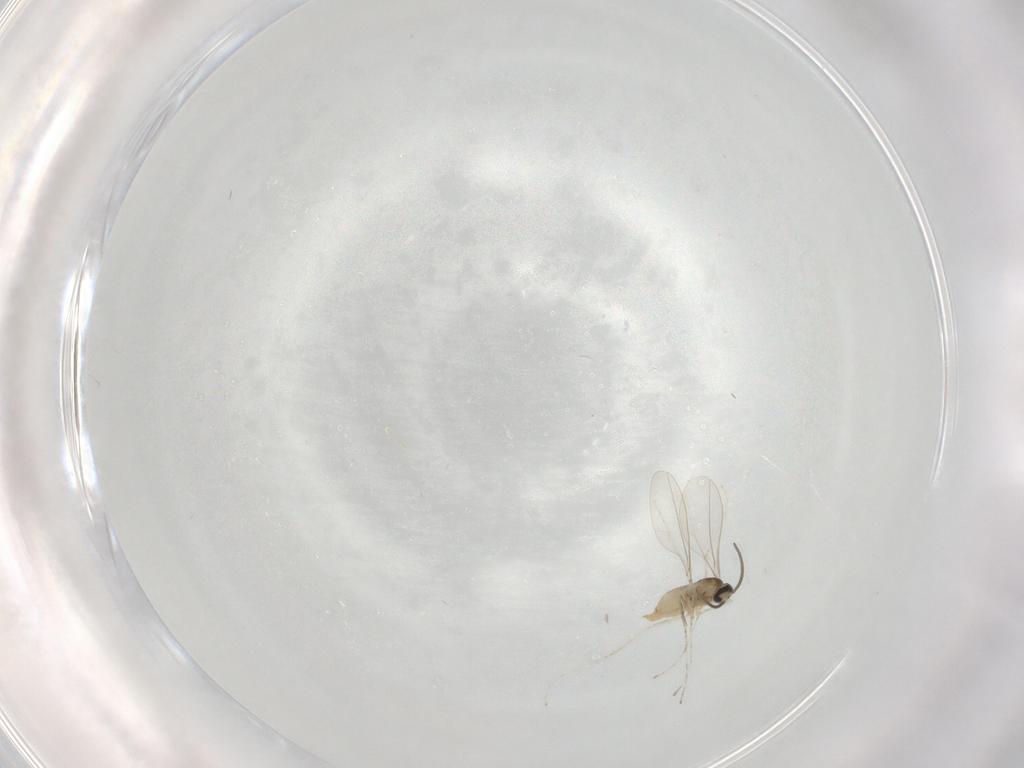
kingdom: Animalia
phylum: Arthropoda
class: Insecta
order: Diptera
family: Cecidomyiidae
